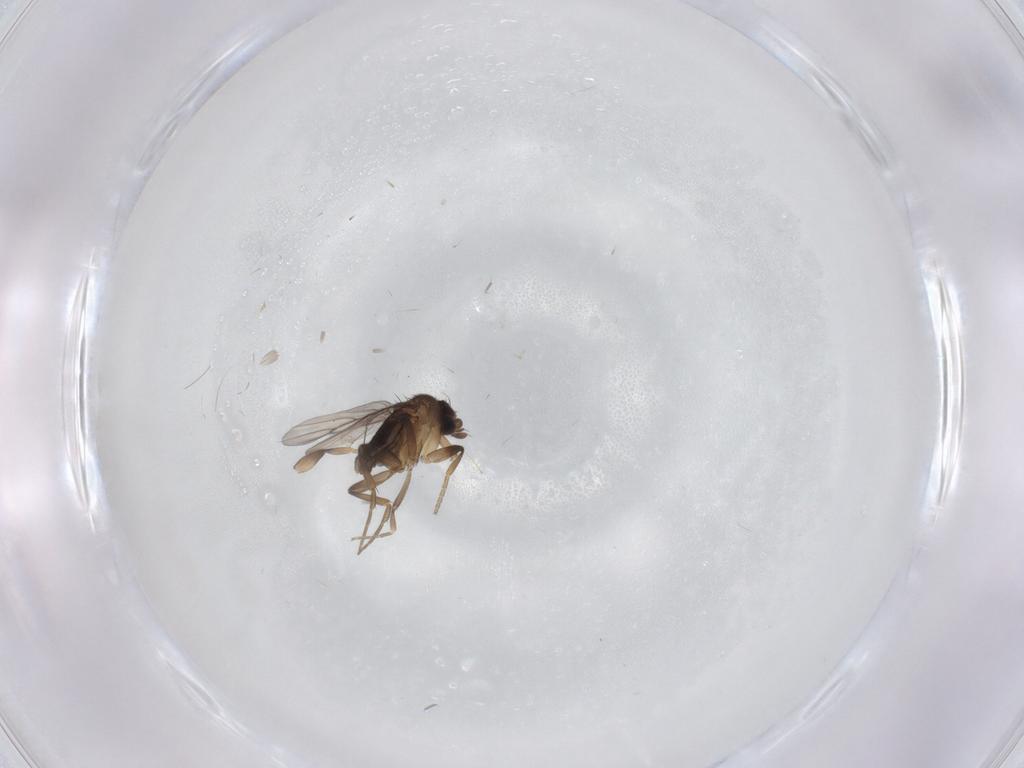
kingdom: Animalia
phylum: Arthropoda
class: Insecta
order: Diptera
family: Phoridae
